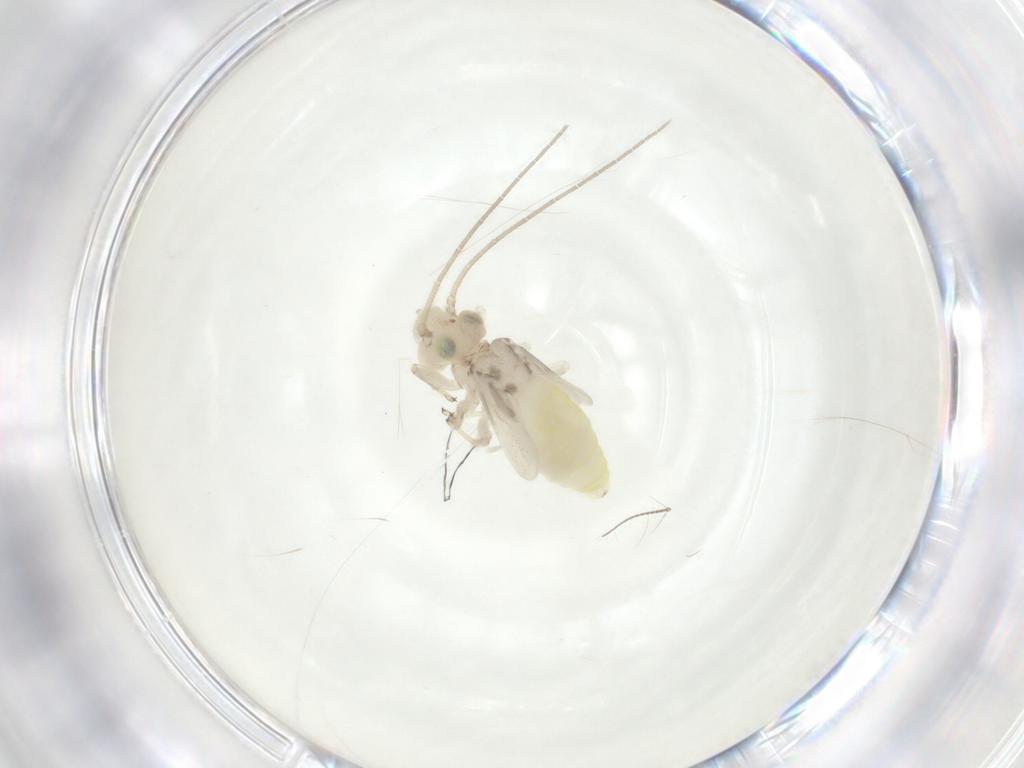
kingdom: Animalia
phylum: Arthropoda
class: Insecta
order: Psocodea
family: Caeciliusidae
